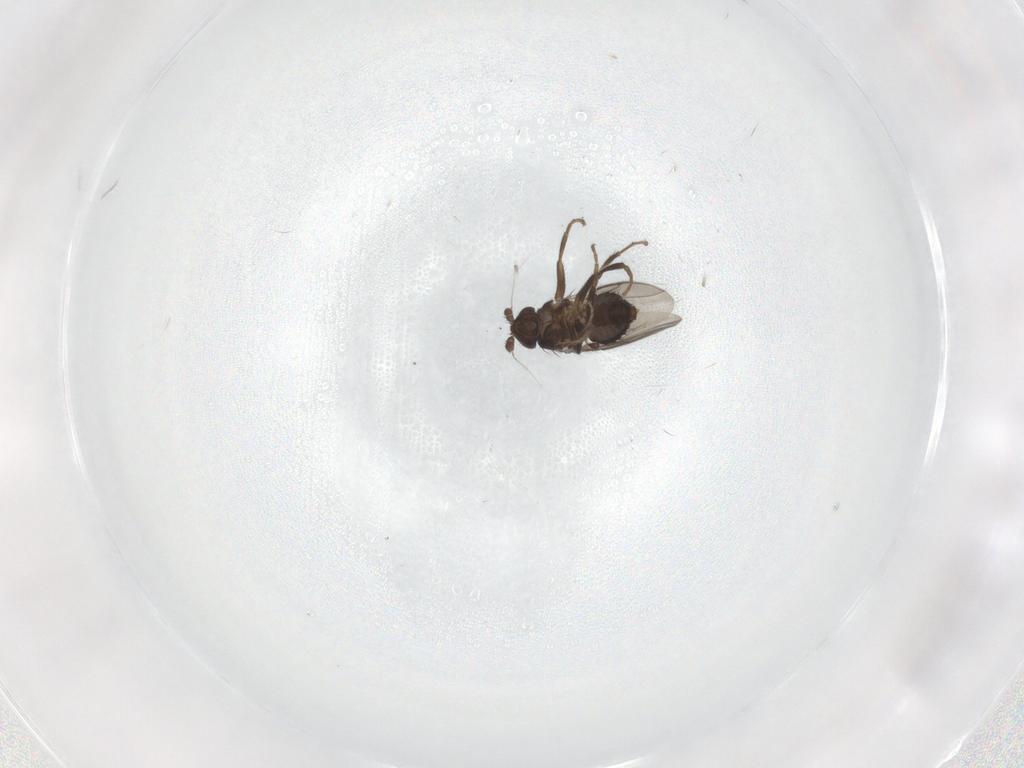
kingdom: Animalia
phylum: Arthropoda
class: Insecta
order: Diptera
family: Sphaeroceridae
